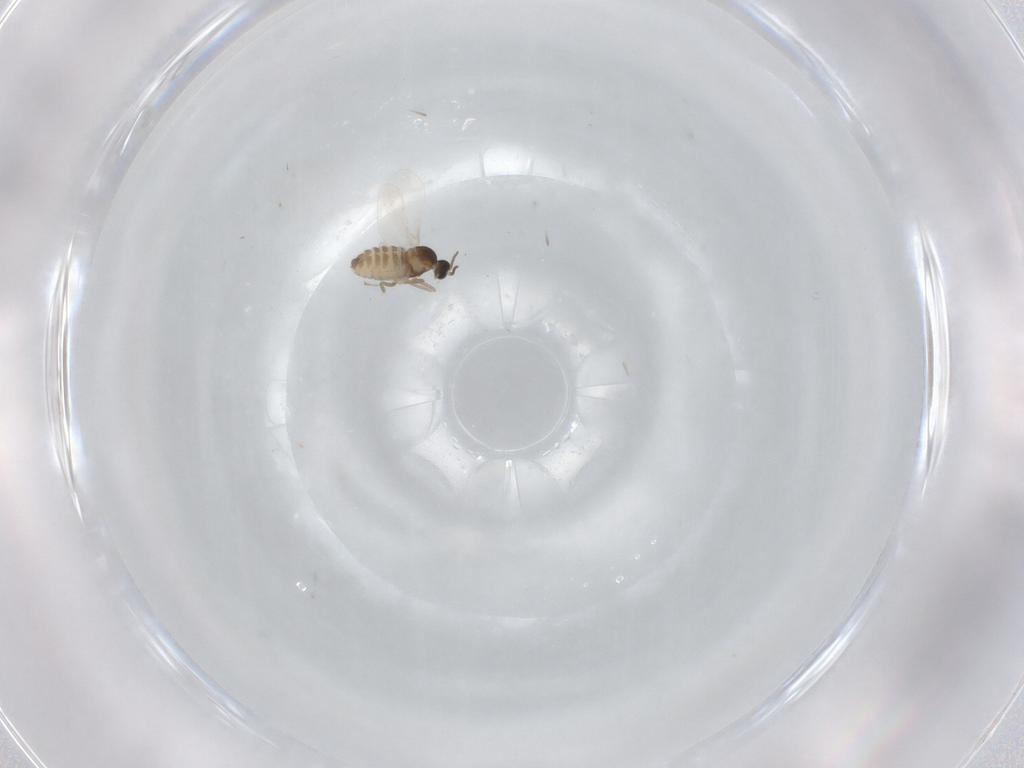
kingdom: Animalia
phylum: Arthropoda
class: Insecta
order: Diptera
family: Cecidomyiidae
